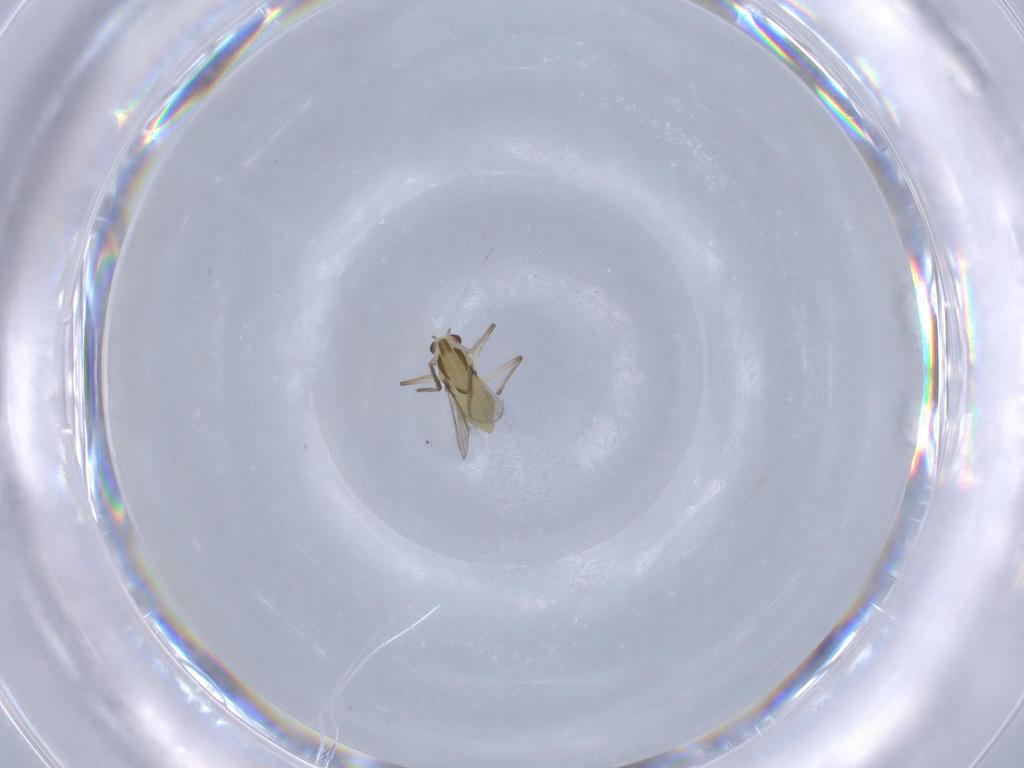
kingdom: Animalia
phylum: Arthropoda
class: Insecta
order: Diptera
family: Chironomidae
